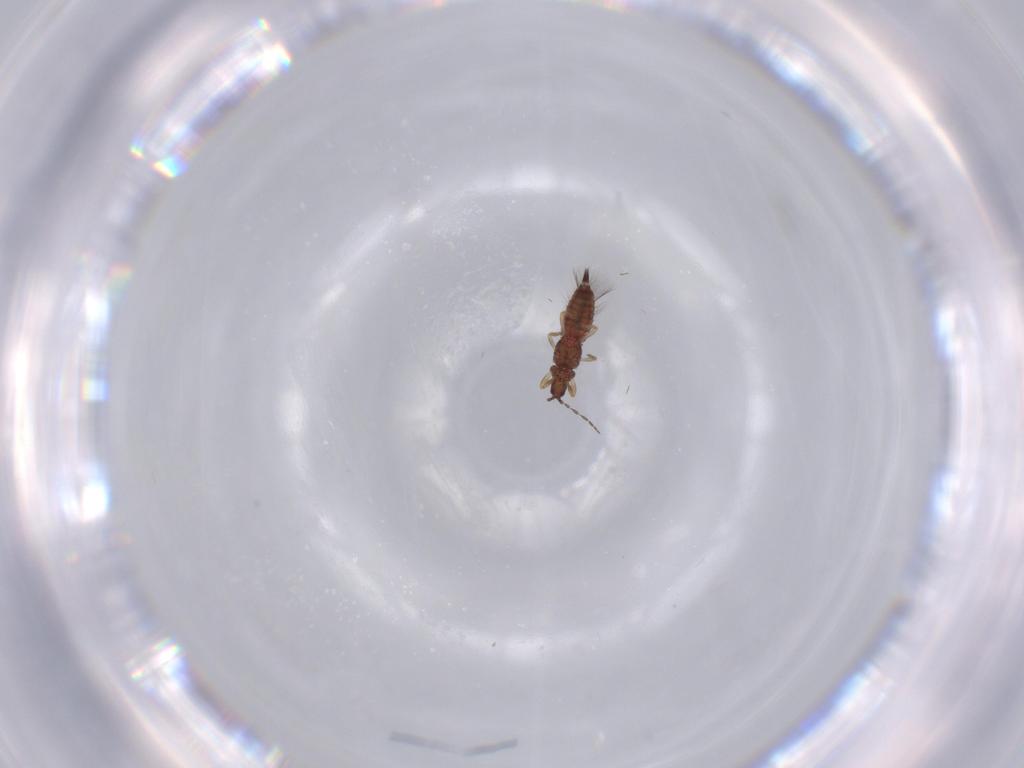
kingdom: Animalia
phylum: Arthropoda
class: Insecta
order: Thysanoptera
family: Phlaeothripidae
